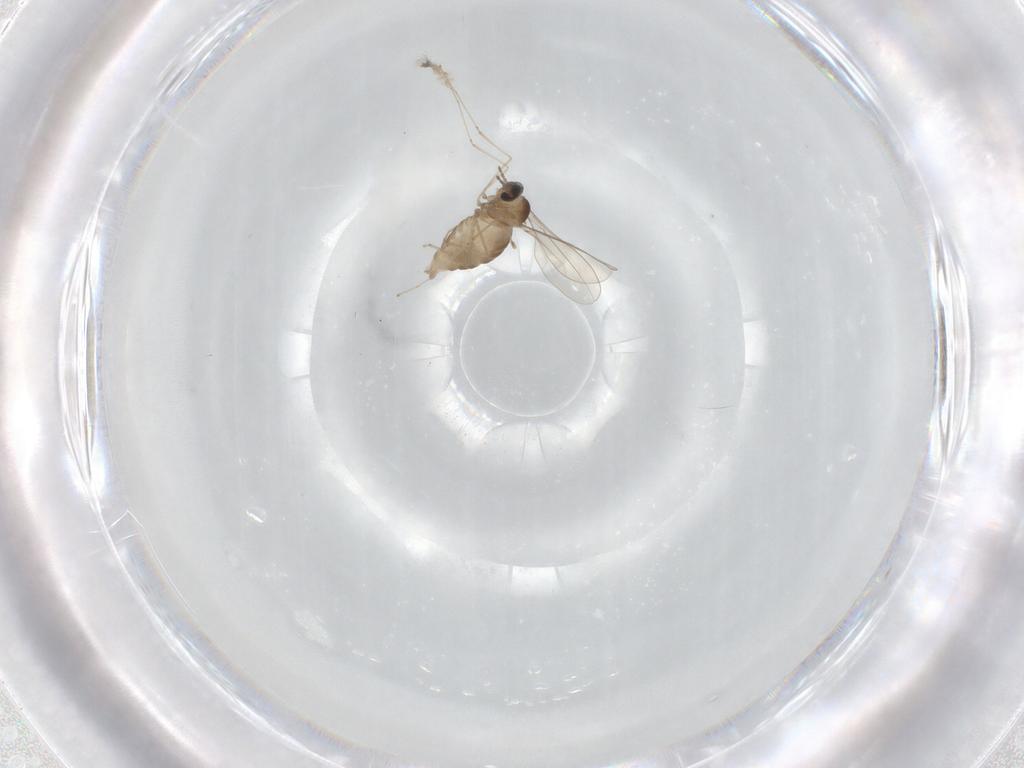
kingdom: Animalia
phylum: Arthropoda
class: Insecta
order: Diptera
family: Cecidomyiidae
